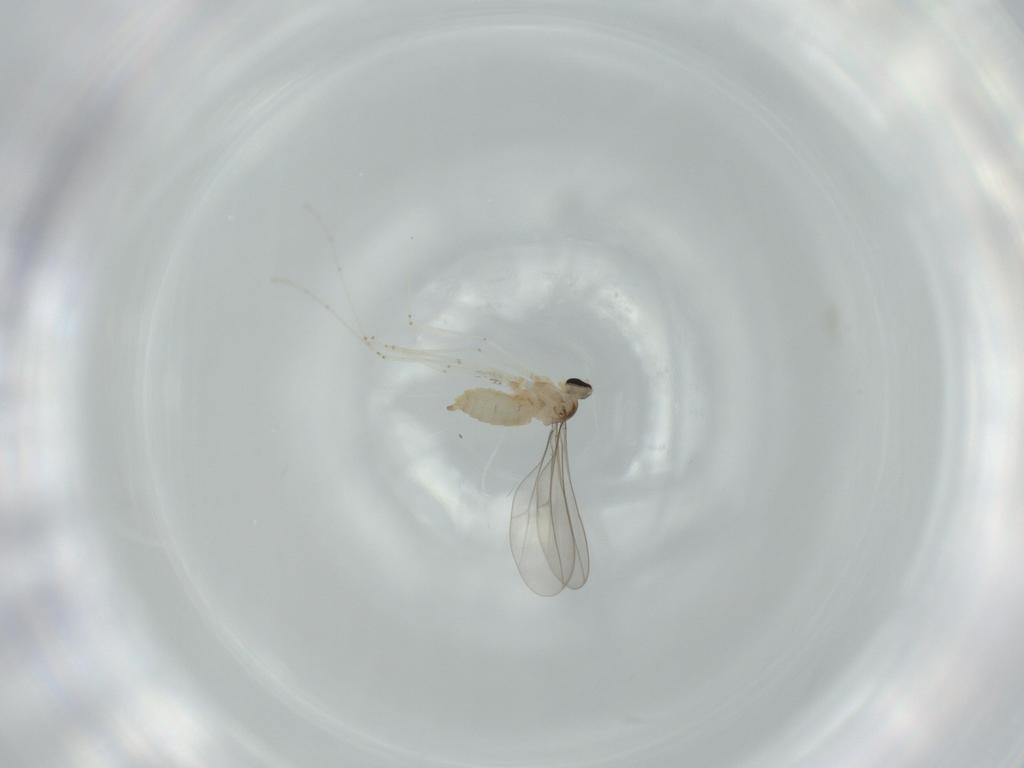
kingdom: Animalia
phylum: Arthropoda
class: Insecta
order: Diptera
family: Cecidomyiidae
